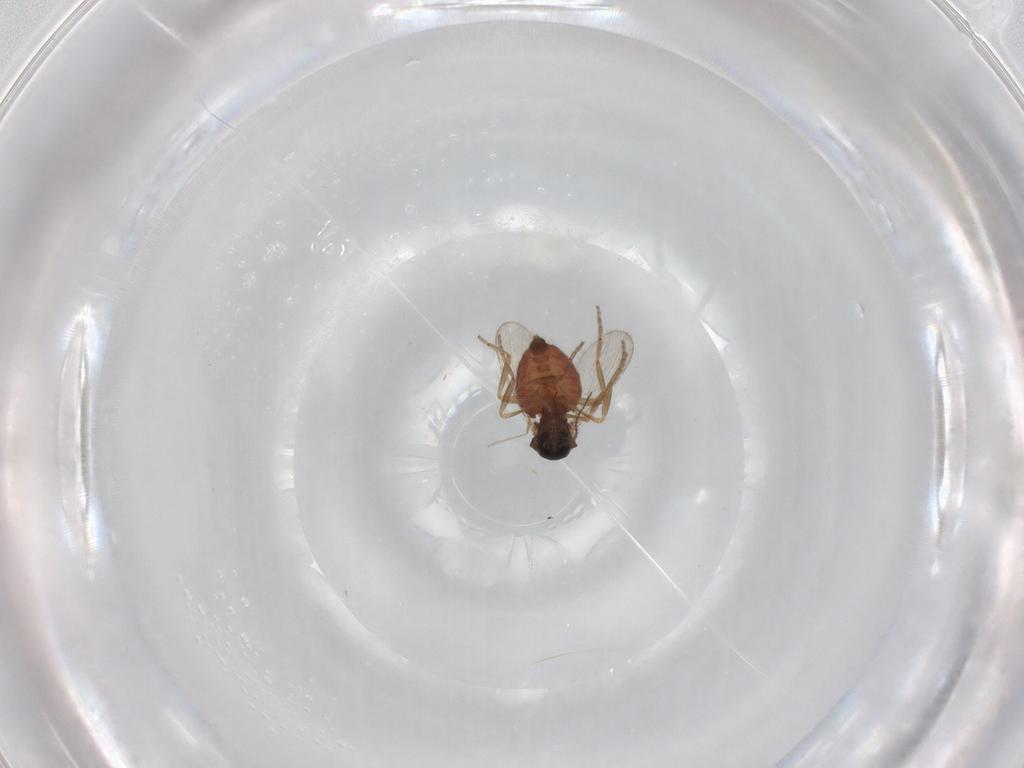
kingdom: Animalia
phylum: Arthropoda
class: Insecta
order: Diptera
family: Ceratopogonidae
